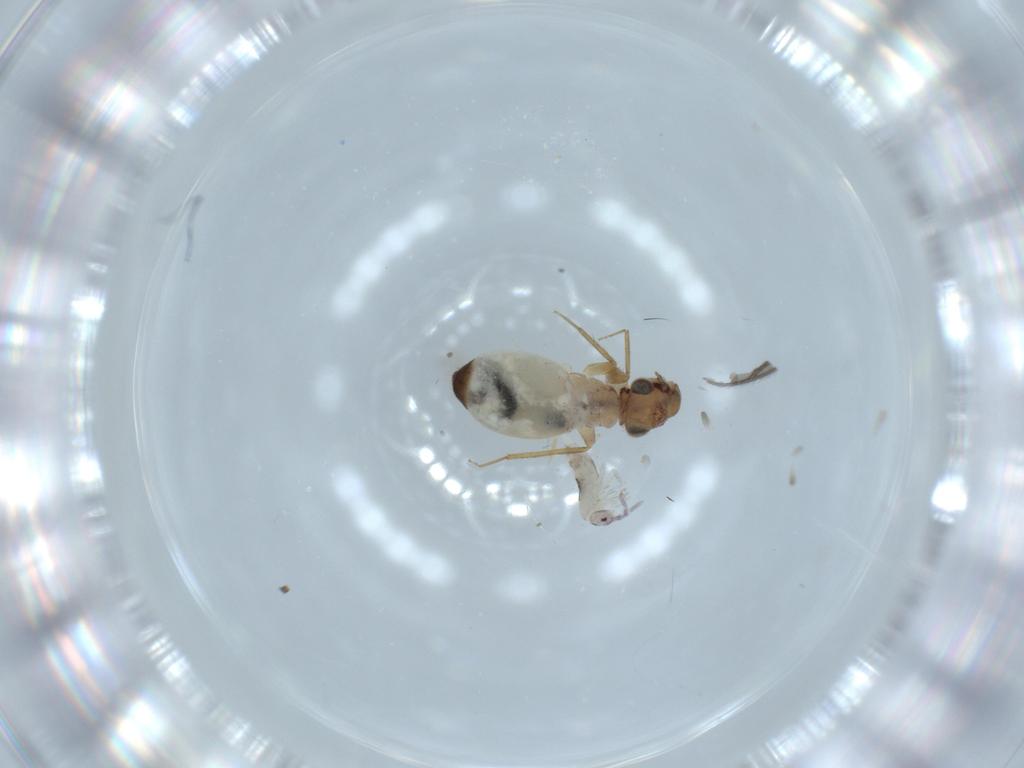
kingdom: Animalia
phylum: Arthropoda
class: Collembola
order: Entomobryomorpha
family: Entomobryidae
